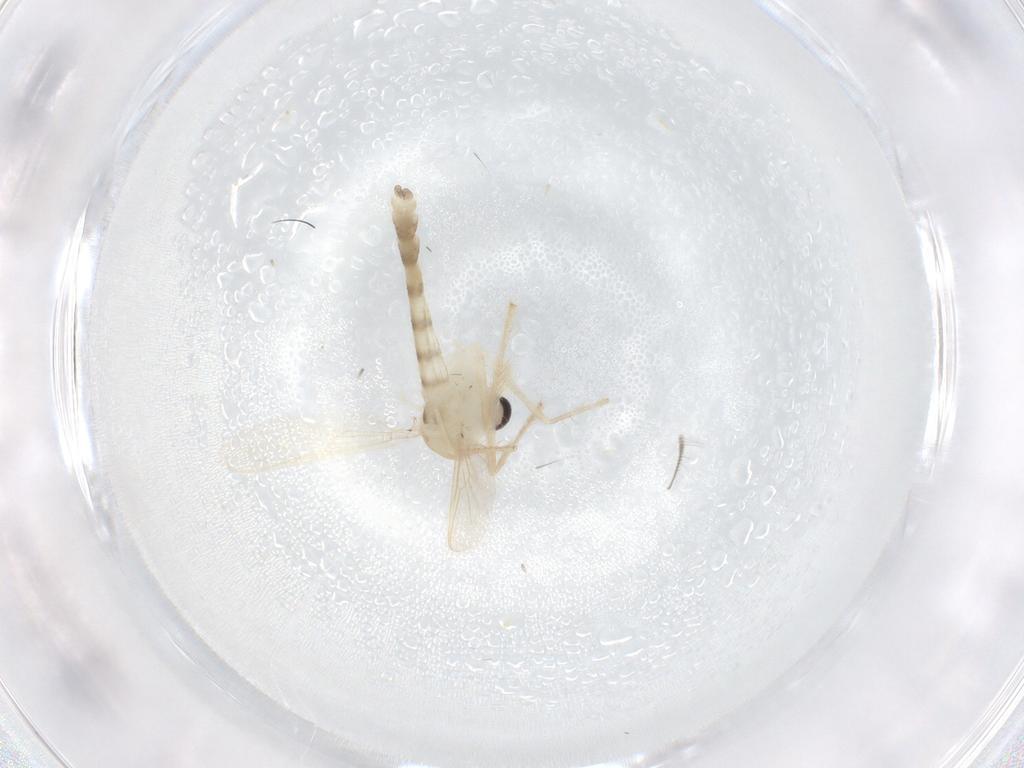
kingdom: Animalia
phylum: Arthropoda
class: Insecta
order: Diptera
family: Chironomidae
